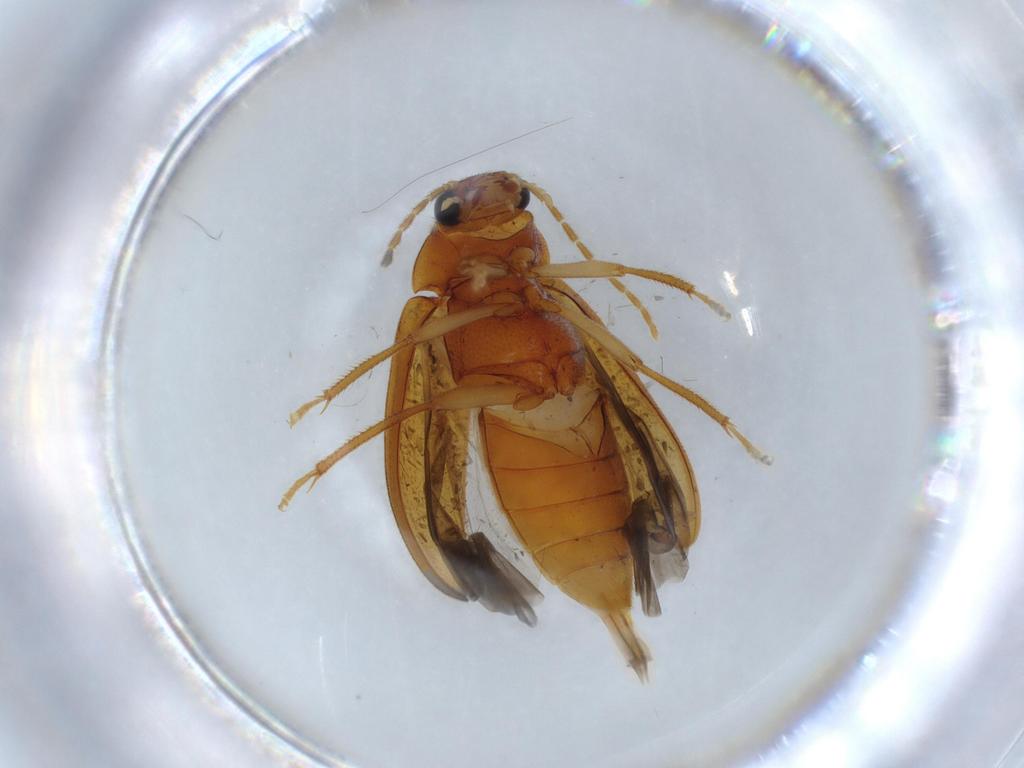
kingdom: Animalia
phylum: Arthropoda
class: Insecta
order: Coleoptera
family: Ptilodactylidae
